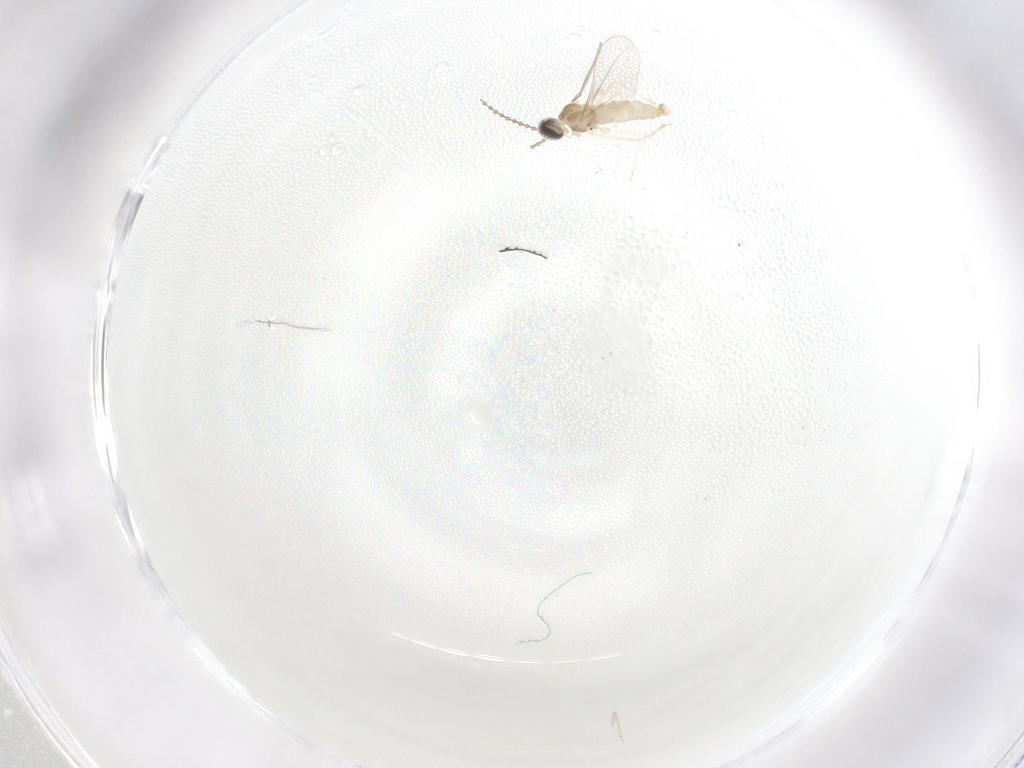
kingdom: Animalia
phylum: Arthropoda
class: Insecta
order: Diptera
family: Cecidomyiidae
